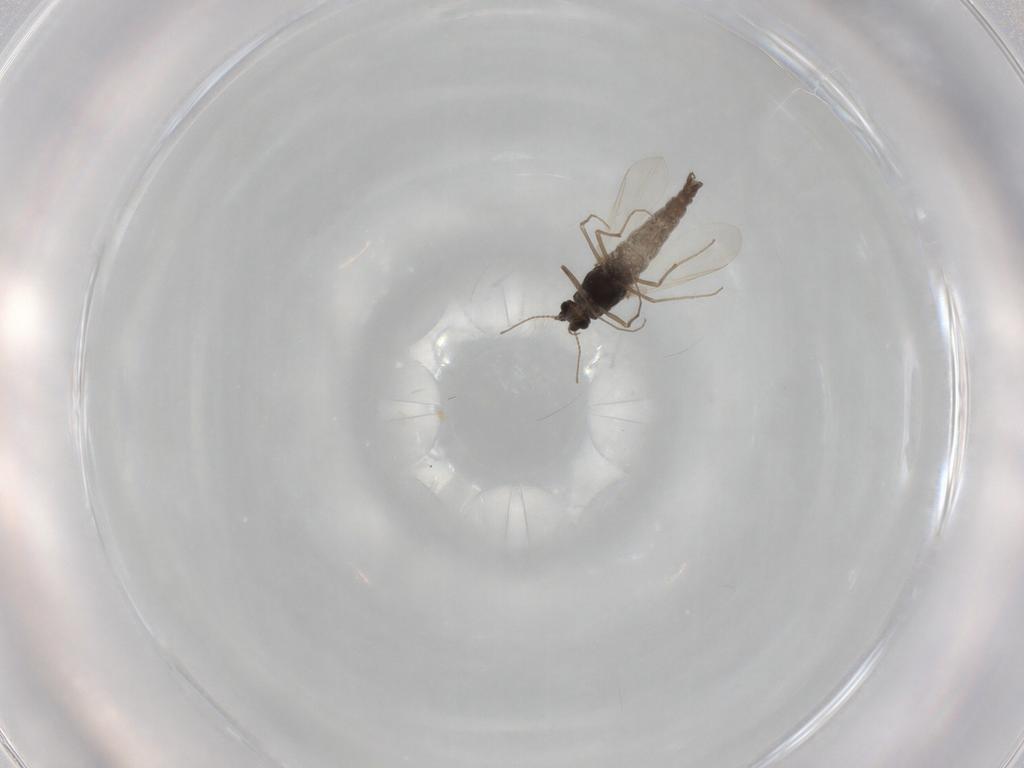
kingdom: Animalia
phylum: Arthropoda
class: Insecta
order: Diptera
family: Chironomidae
